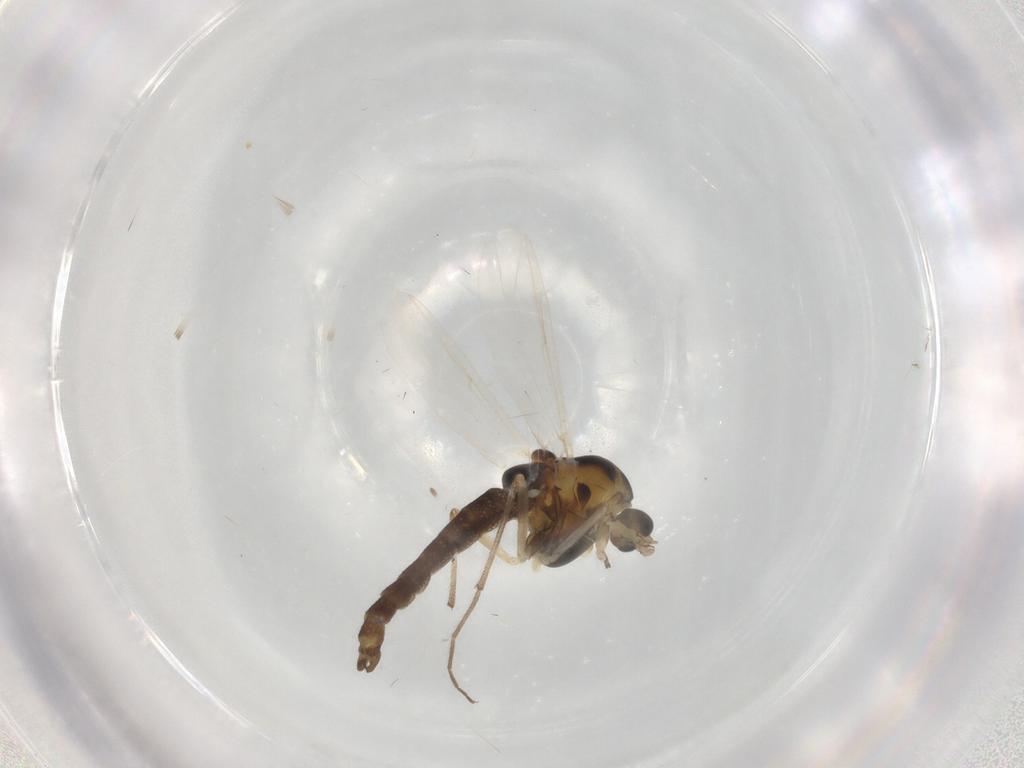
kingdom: Animalia
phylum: Arthropoda
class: Insecta
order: Diptera
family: Chironomidae
